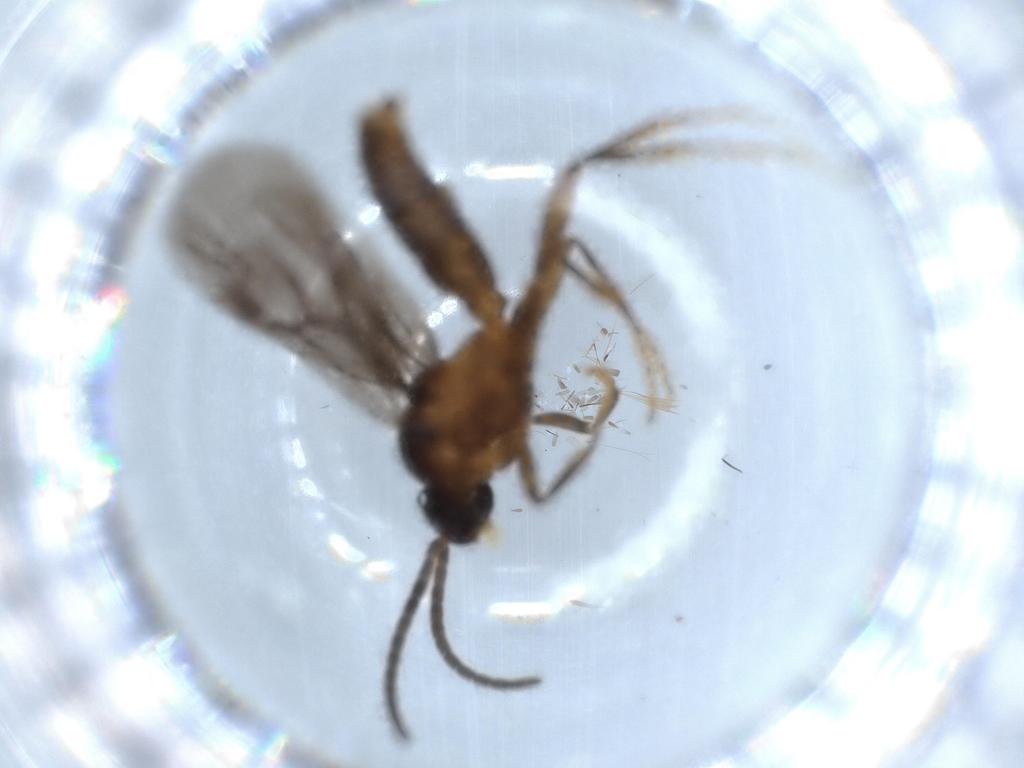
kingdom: Animalia
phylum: Arthropoda
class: Insecta
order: Hymenoptera
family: Formicidae
